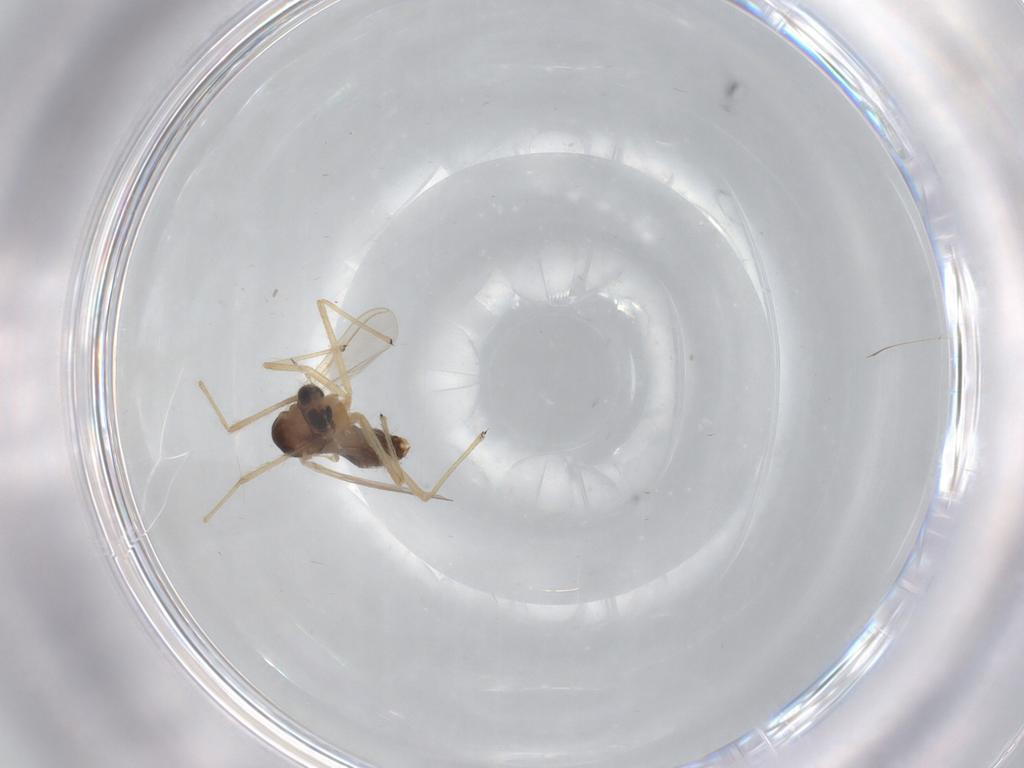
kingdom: Animalia
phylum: Arthropoda
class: Insecta
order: Diptera
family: Chironomidae
